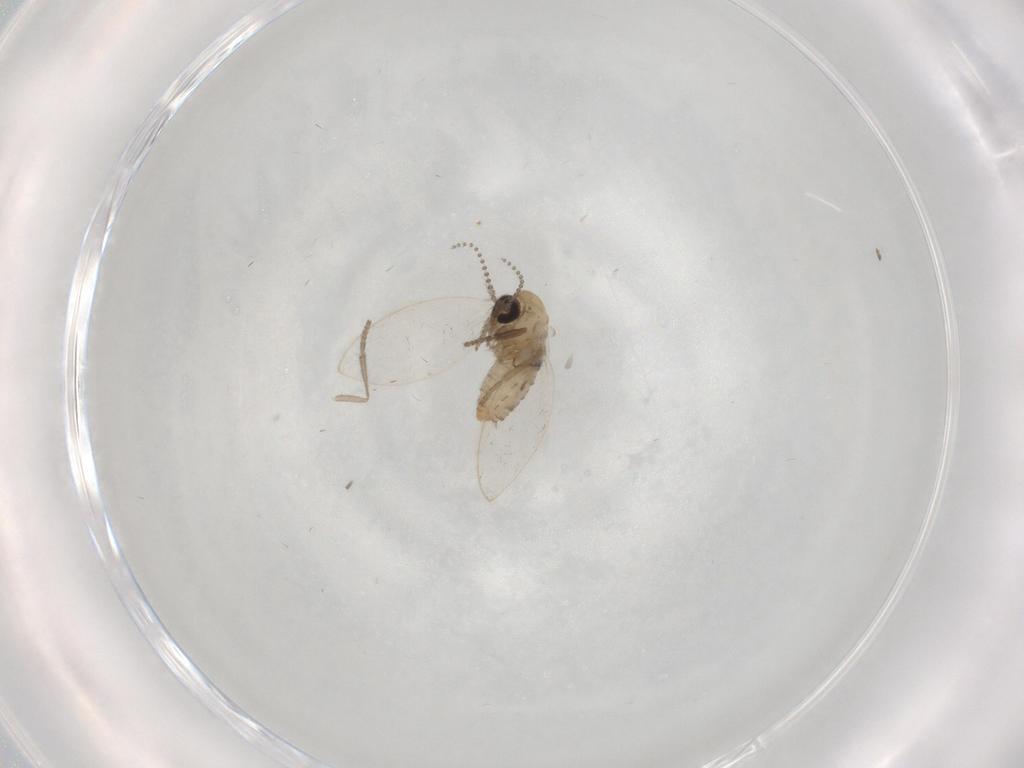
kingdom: Animalia
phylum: Arthropoda
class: Insecta
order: Diptera
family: Psychodidae
